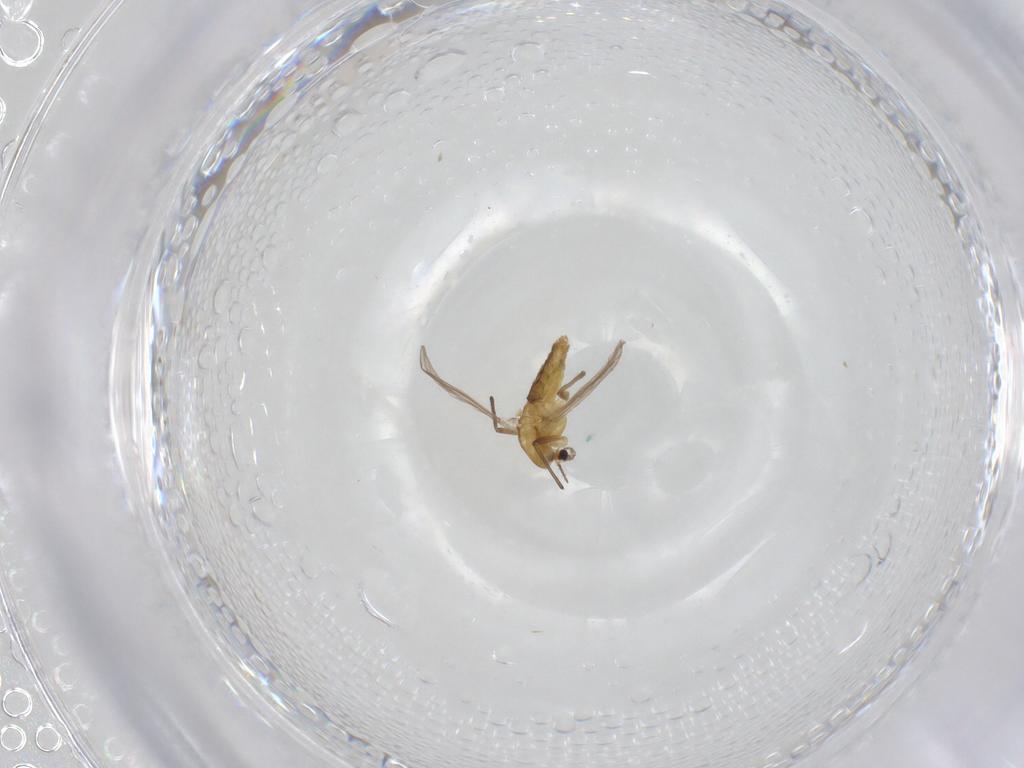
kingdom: Animalia
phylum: Arthropoda
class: Insecta
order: Diptera
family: Chironomidae
